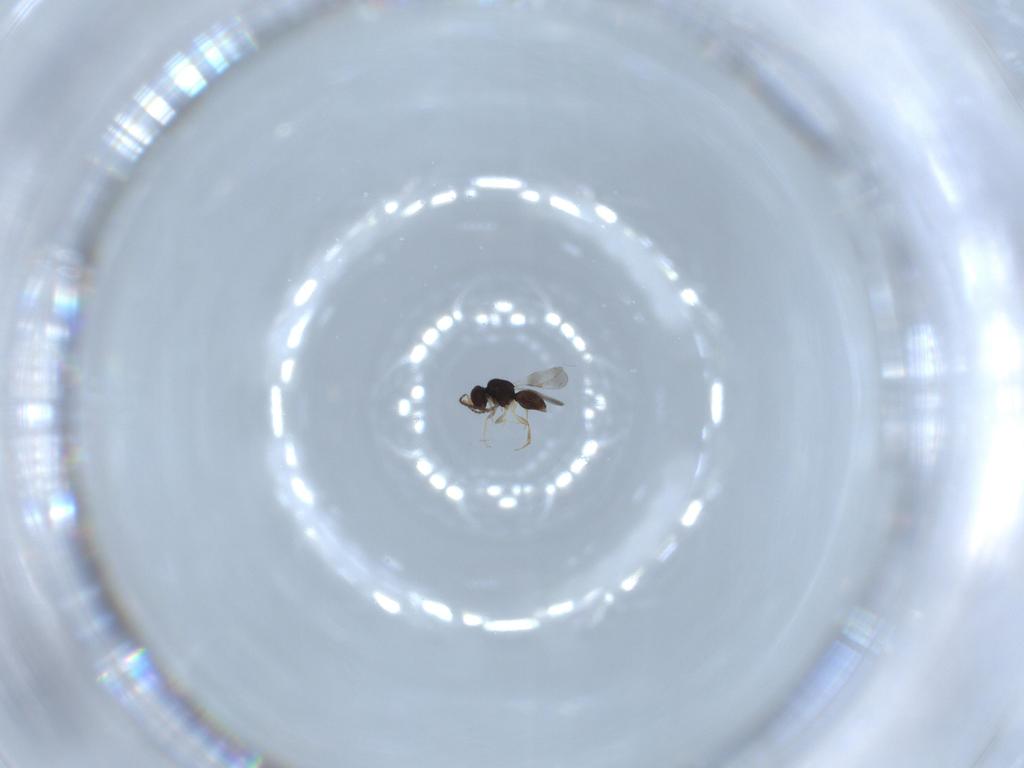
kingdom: Animalia
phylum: Arthropoda
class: Insecta
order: Hymenoptera
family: Ceraphronidae
